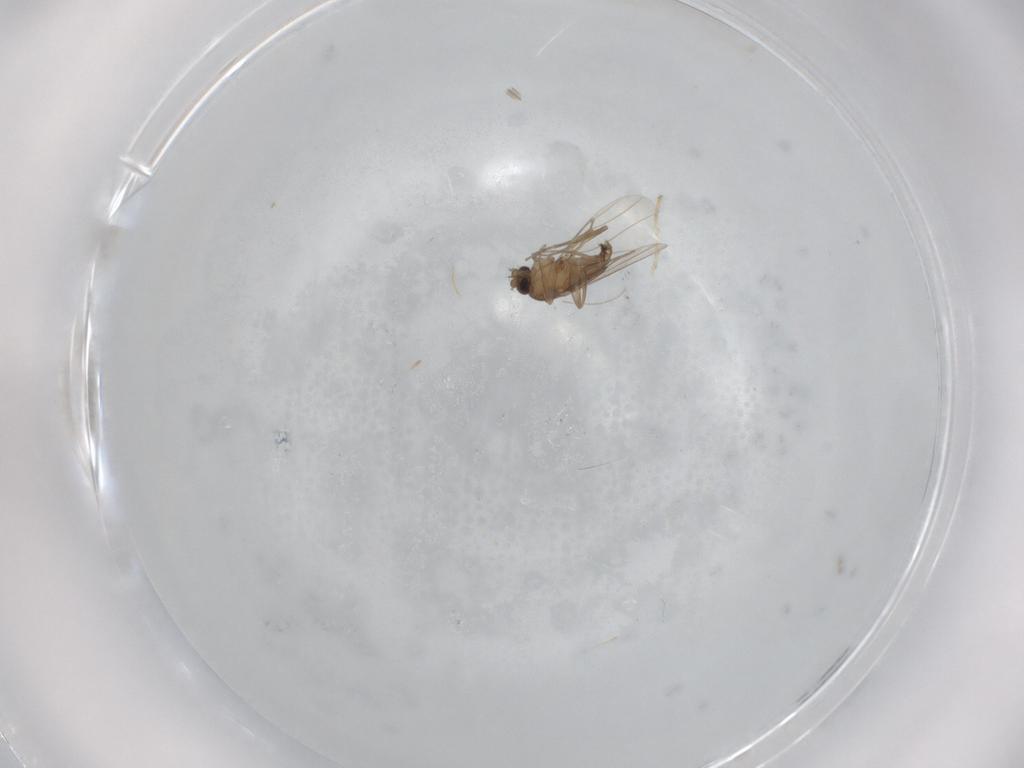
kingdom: Animalia
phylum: Arthropoda
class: Insecta
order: Diptera
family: Phoridae
